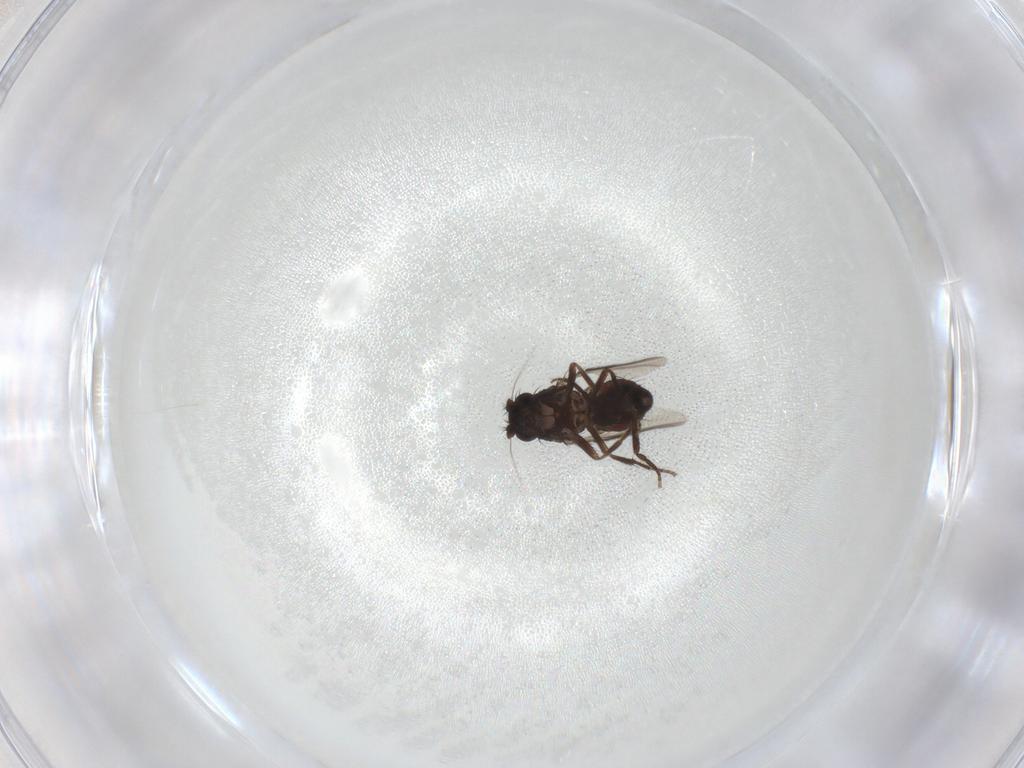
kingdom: Animalia
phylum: Arthropoda
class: Insecta
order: Diptera
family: Sphaeroceridae
